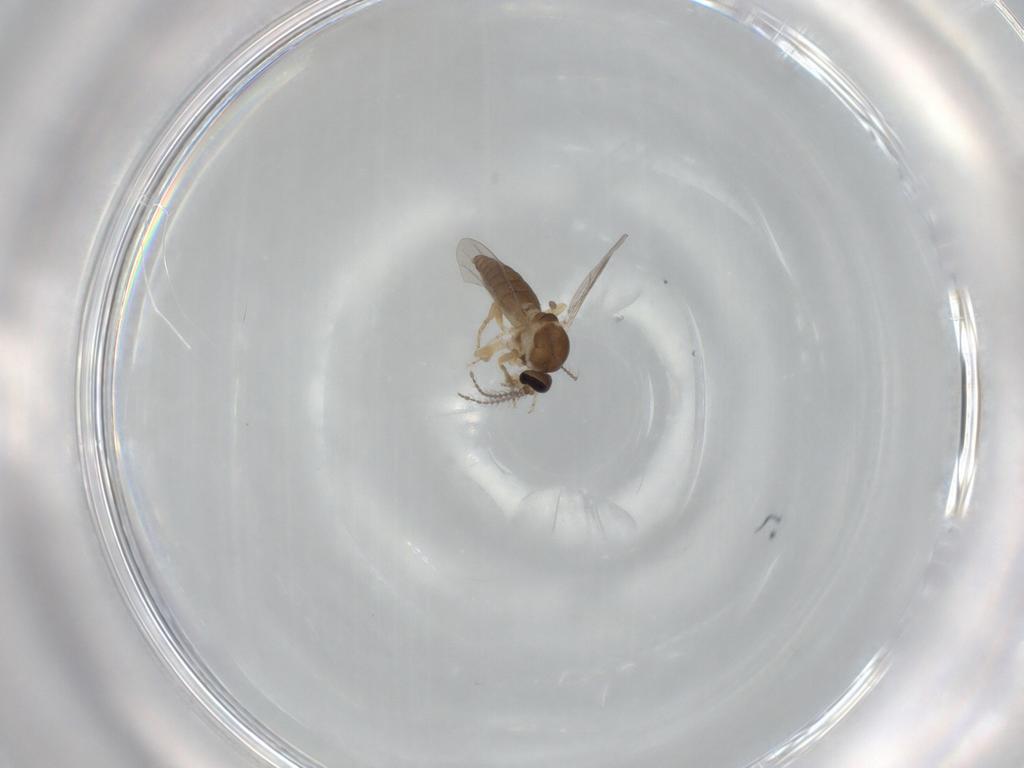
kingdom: Animalia
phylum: Arthropoda
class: Insecta
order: Diptera
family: Ceratopogonidae
